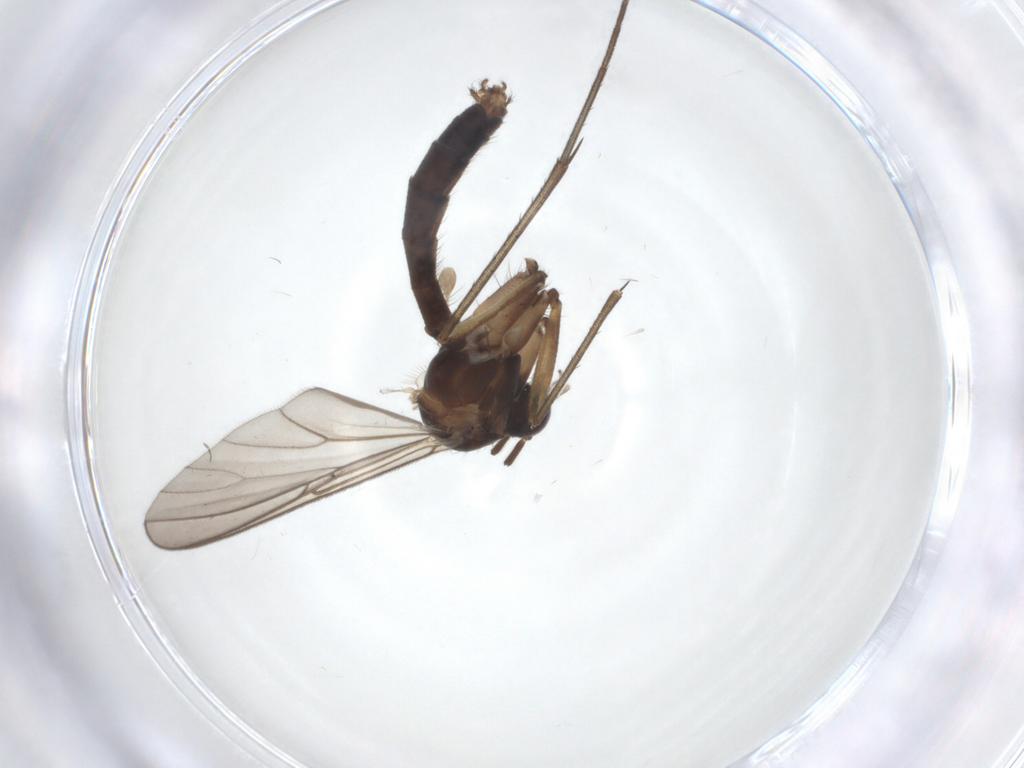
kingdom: Animalia
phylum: Arthropoda
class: Insecta
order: Diptera
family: Mycetophilidae
